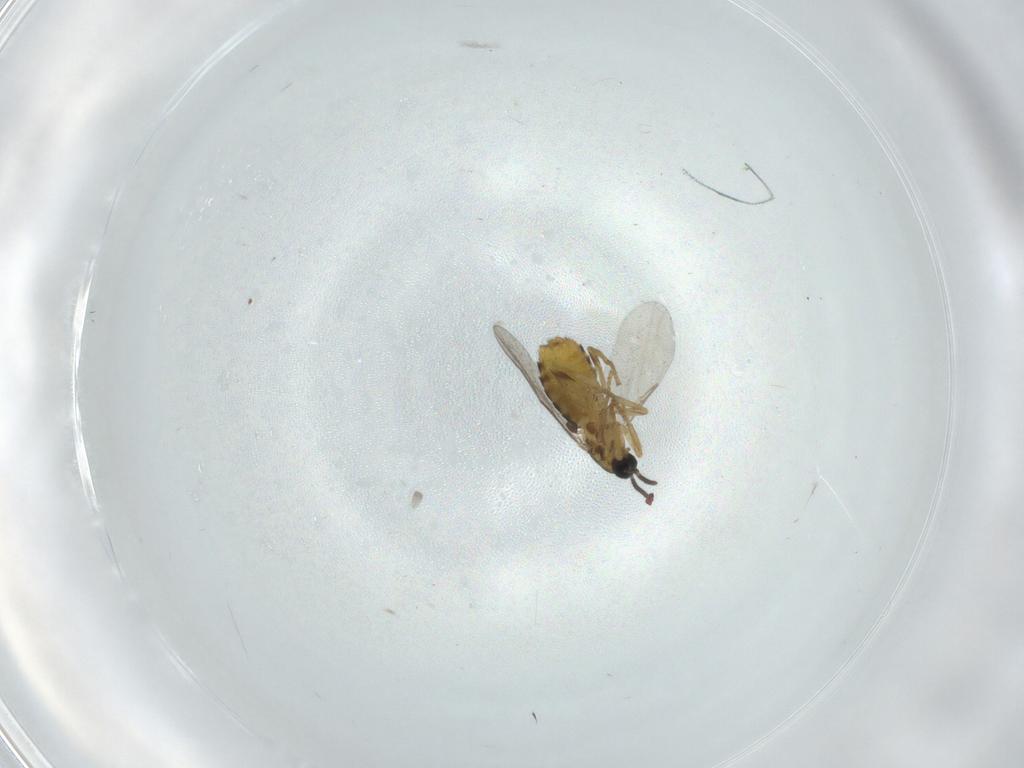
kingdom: Animalia
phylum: Arthropoda
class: Insecta
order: Diptera
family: Scatopsidae
